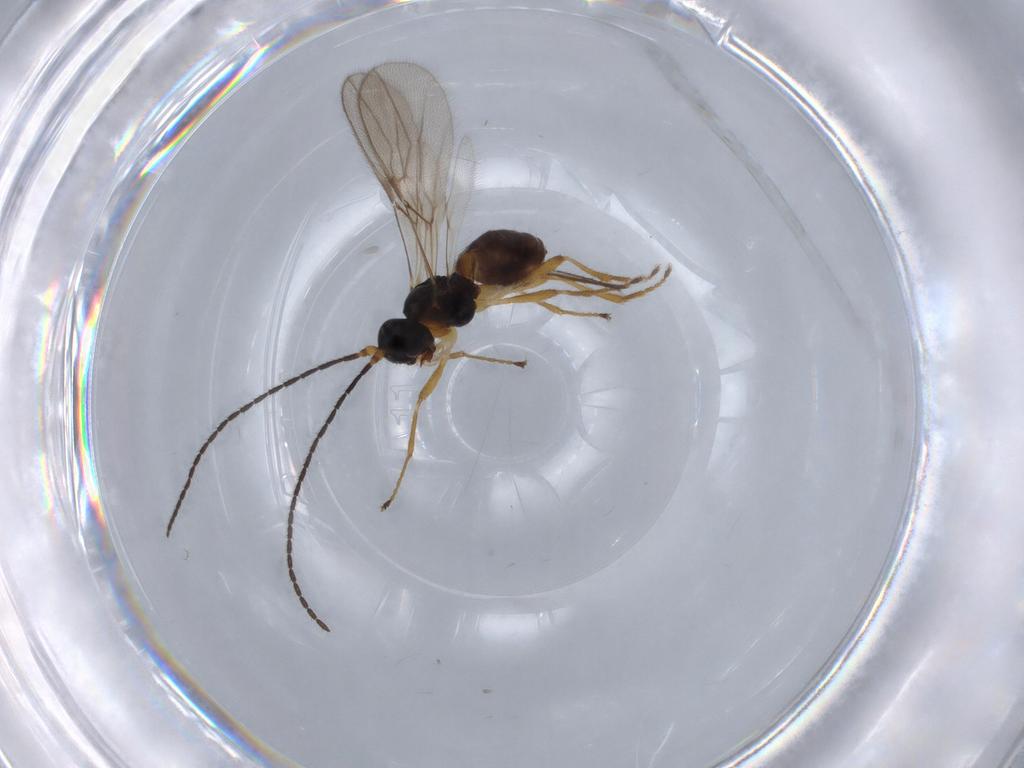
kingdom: Animalia
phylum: Arthropoda
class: Insecta
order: Hymenoptera
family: Braconidae
